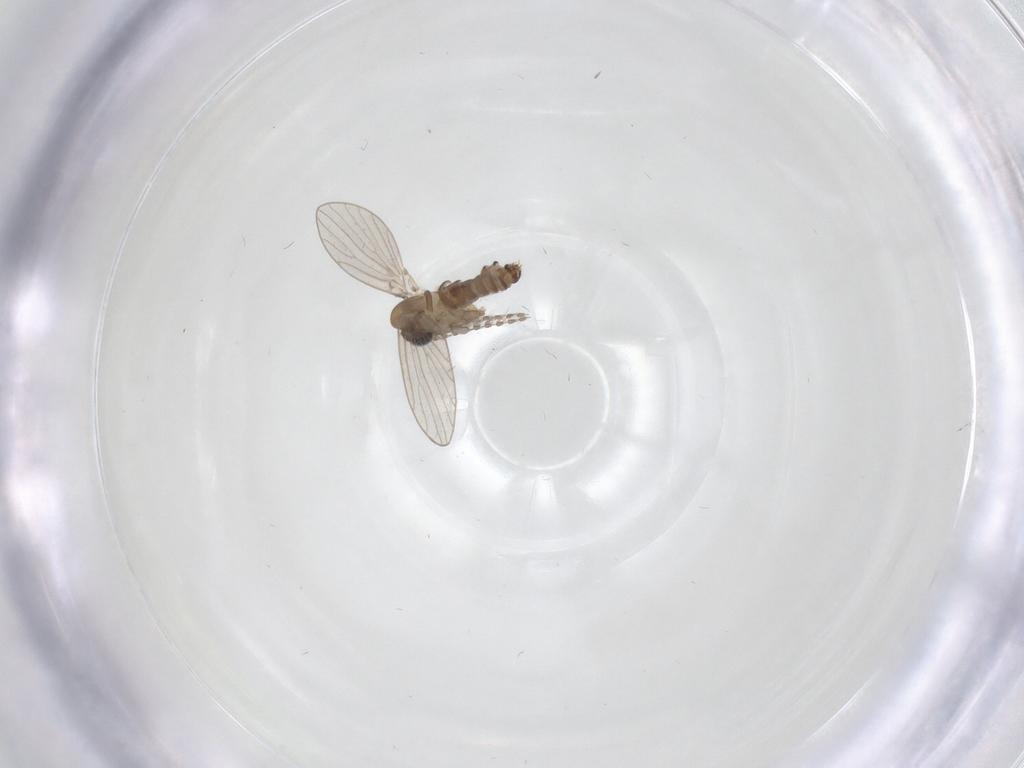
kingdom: Animalia
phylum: Arthropoda
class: Insecta
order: Diptera
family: Psychodidae
